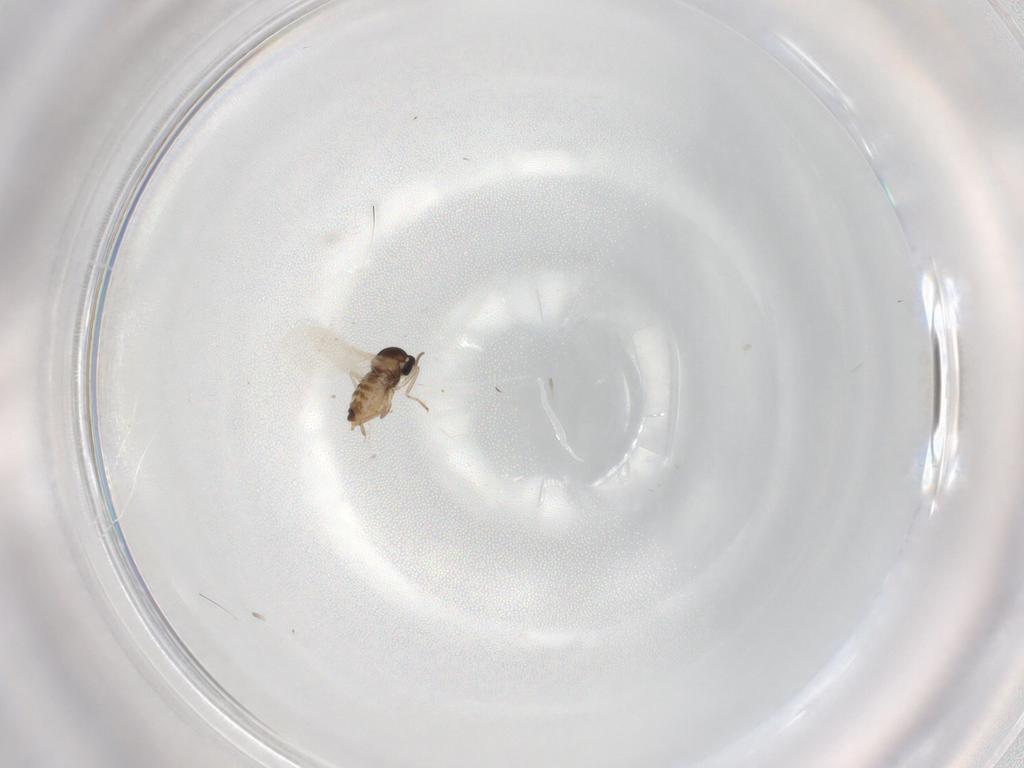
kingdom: Animalia
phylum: Arthropoda
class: Insecta
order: Diptera
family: Cecidomyiidae
